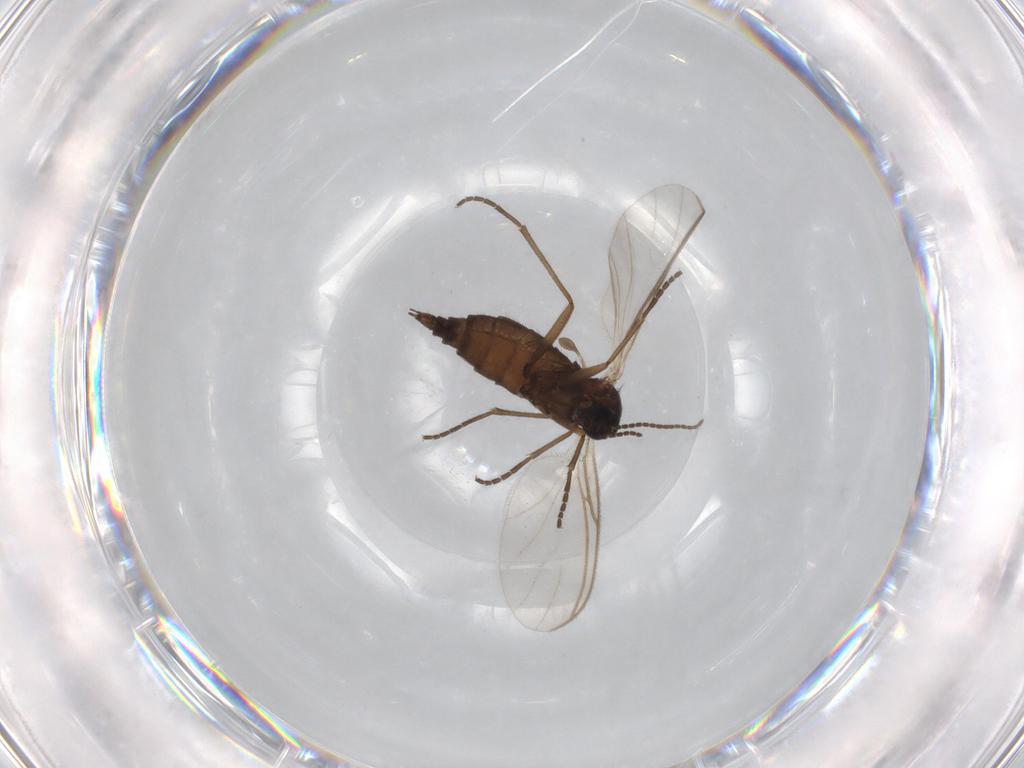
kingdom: Animalia
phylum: Arthropoda
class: Insecta
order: Diptera
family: Sciaridae
